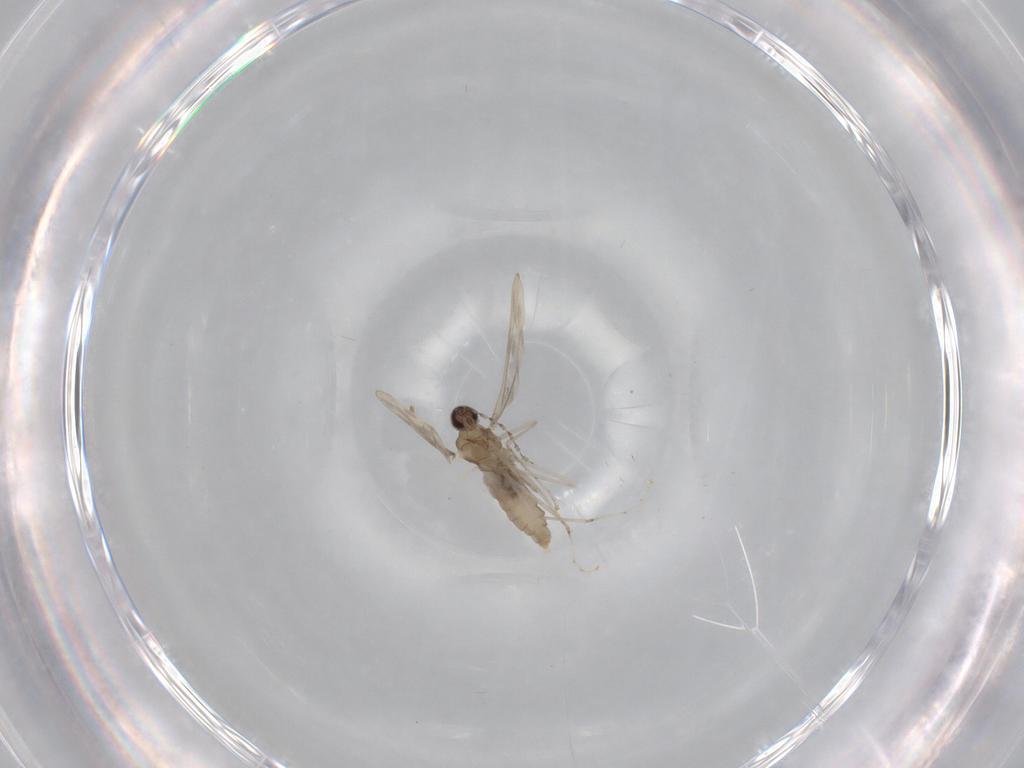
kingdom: Animalia
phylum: Arthropoda
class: Insecta
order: Diptera
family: Cecidomyiidae
